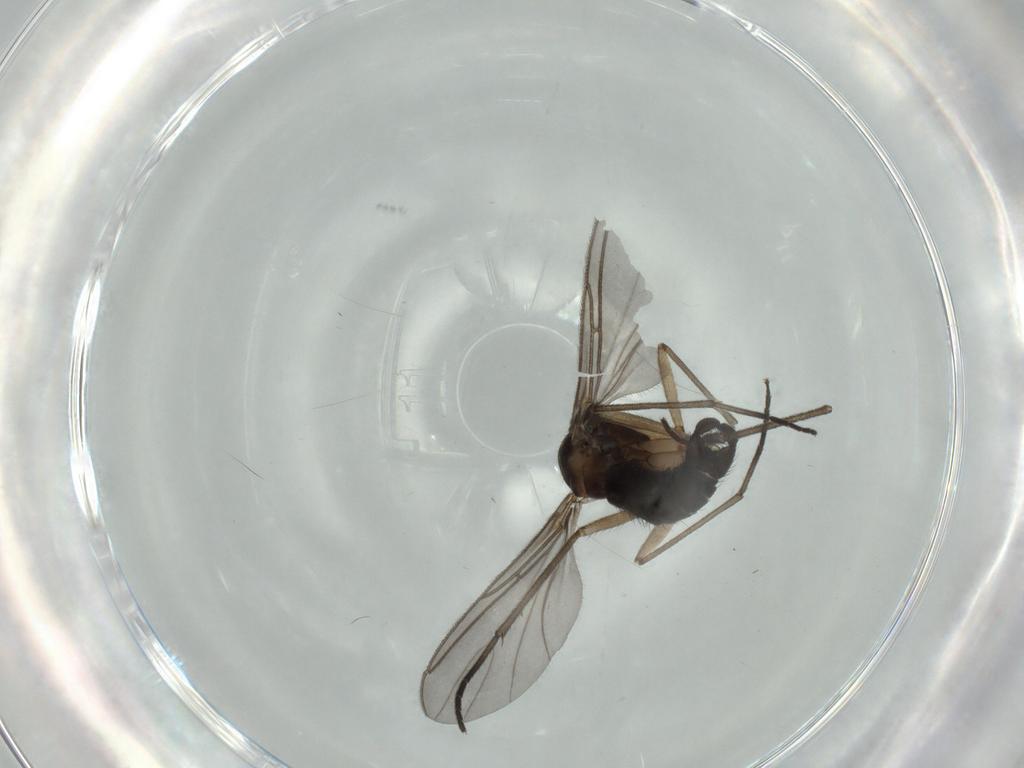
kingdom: Animalia
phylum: Arthropoda
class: Insecta
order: Diptera
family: Sciaridae
